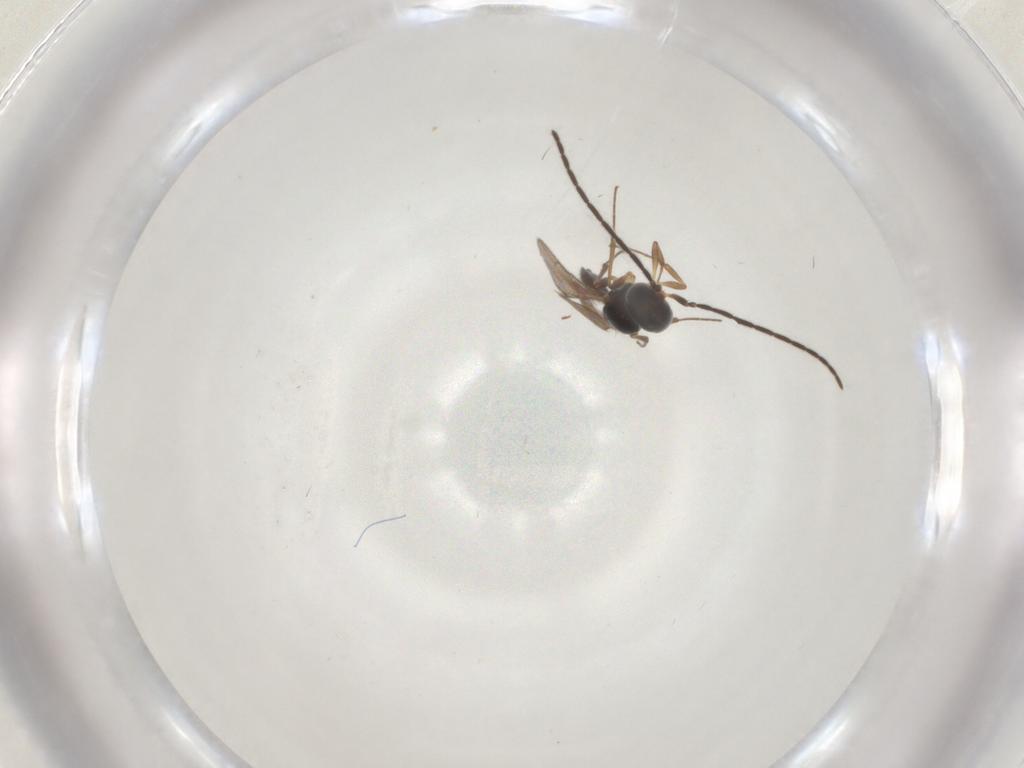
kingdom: Animalia
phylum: Arthropoda
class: Insecta
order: Hymenoptera
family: Scelionidae
